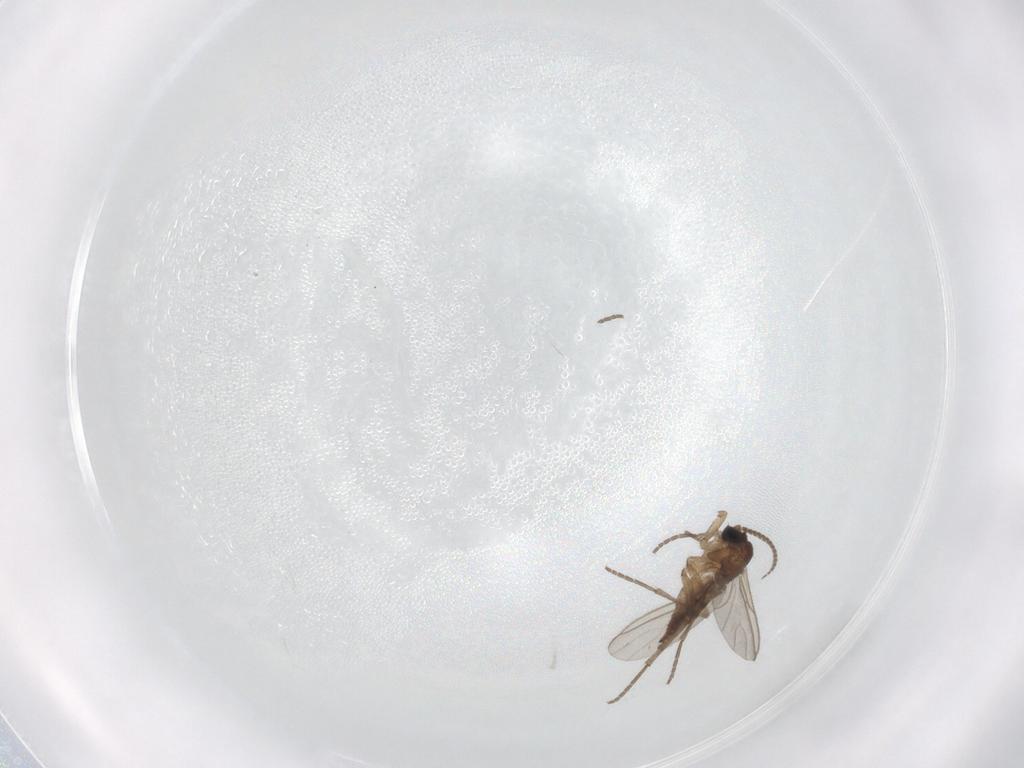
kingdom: Animalia
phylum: Arthropoda
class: Insecta
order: Diptera
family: Sciaridae
